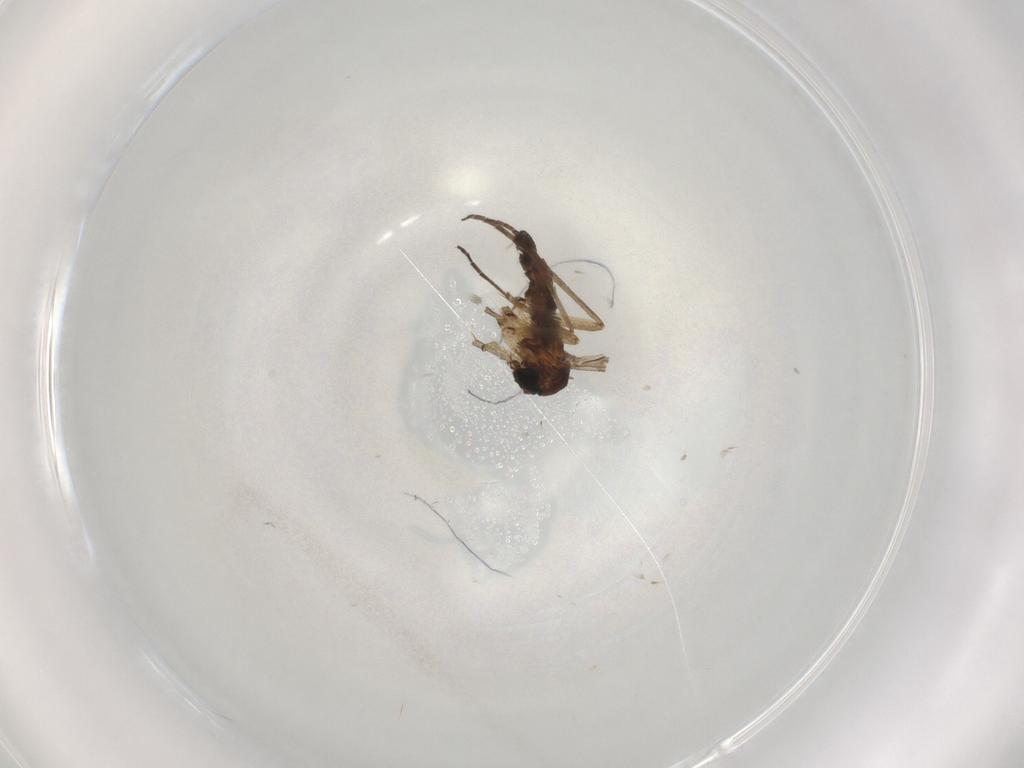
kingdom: Animalia
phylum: Arthropoda
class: Insecta
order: Diptera
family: Sciaridae
